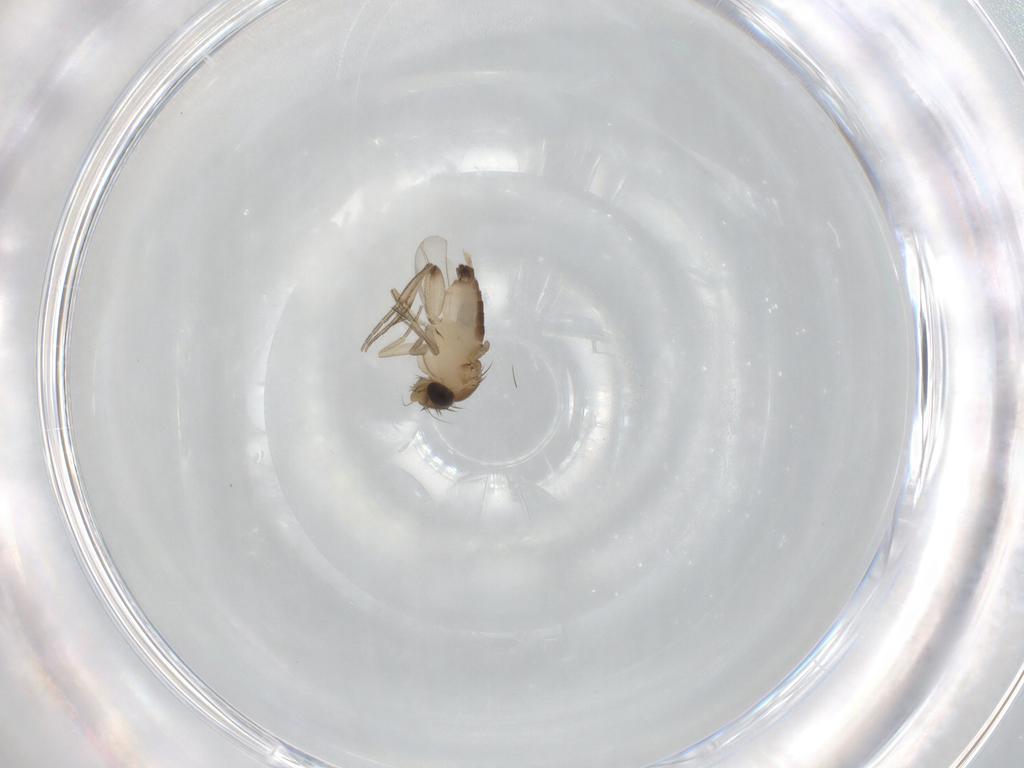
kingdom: Animalia
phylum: Arthropoda
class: Insecta
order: Diptera
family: Phoridae
